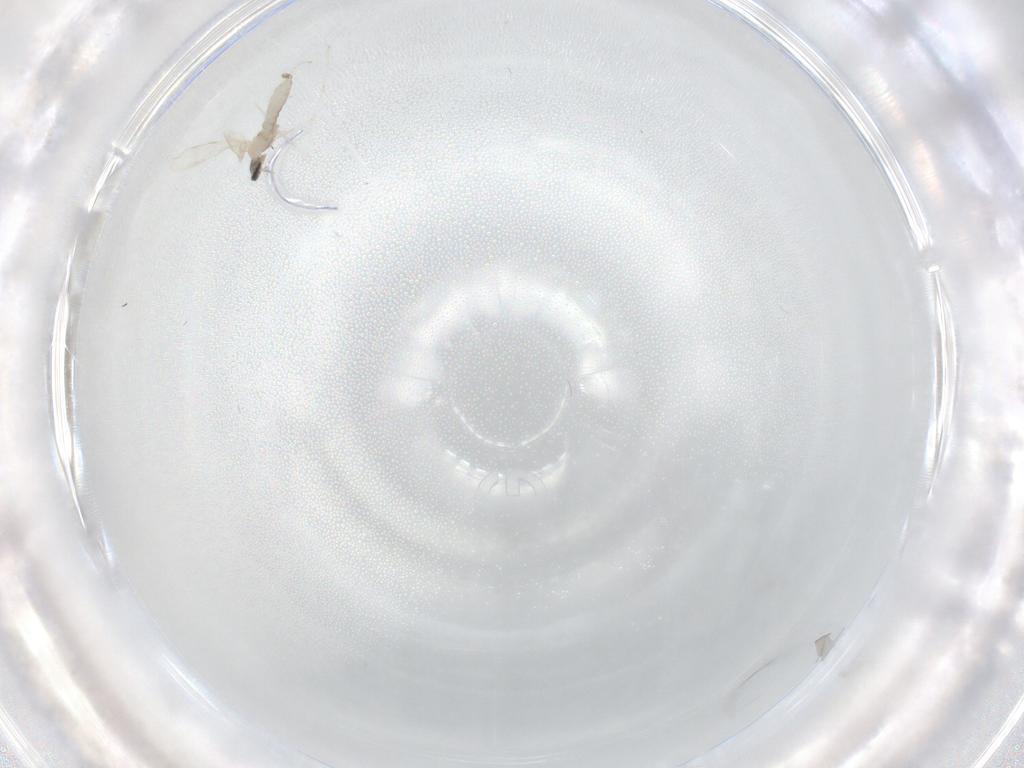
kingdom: Animalia
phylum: Arthropoda
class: Insecta
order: Diptera
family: Cecidomyiidae
